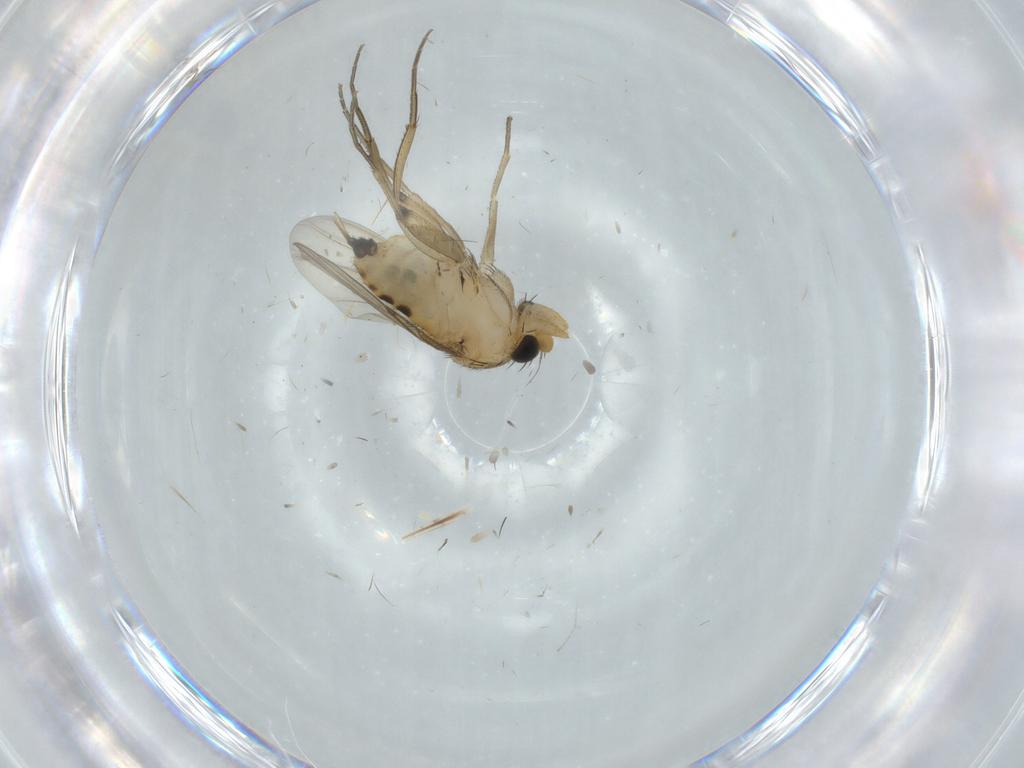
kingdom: Animalia
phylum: Arthropoda
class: Insecta
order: Diptera
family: Phoridae
